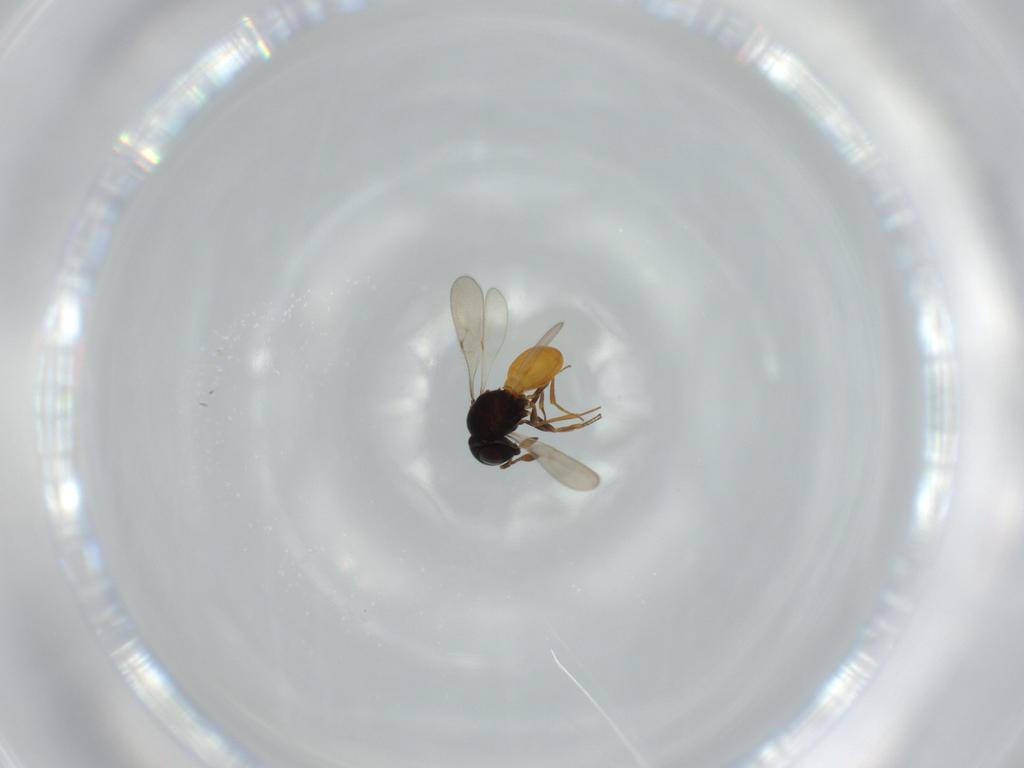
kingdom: Animalia
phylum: Arthropoda
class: Insecta
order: Hymenoptera
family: Scelionidae
